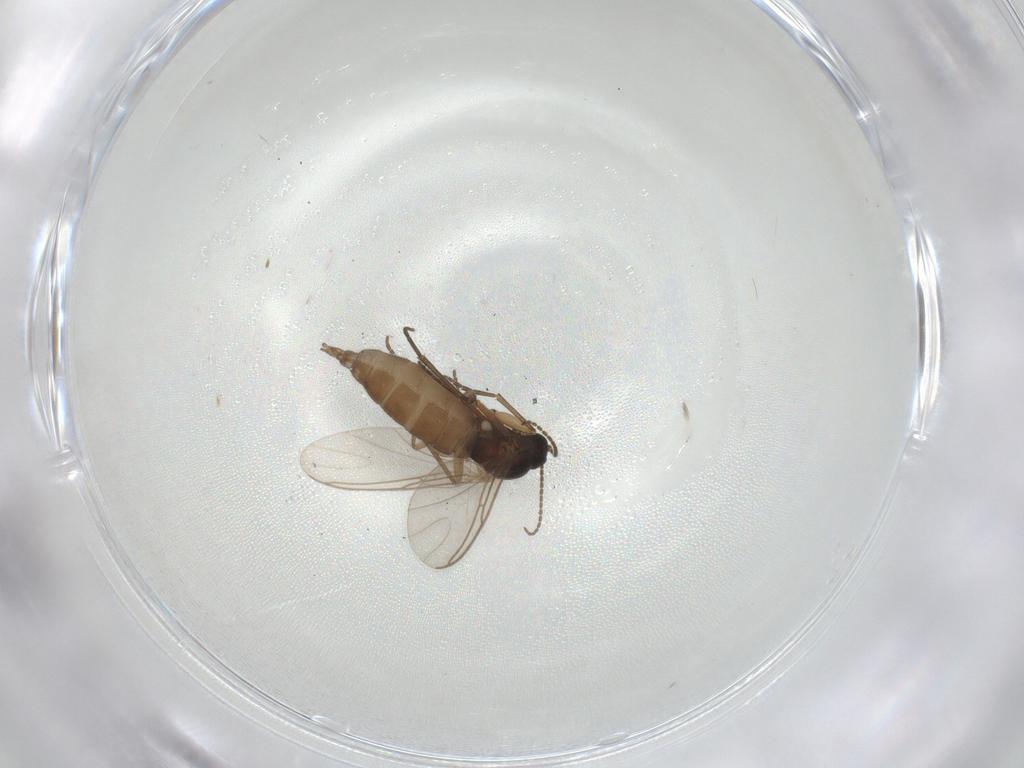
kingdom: Animalia
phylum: Arthropoda
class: Insecta
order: Diptera
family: Sciaridae
